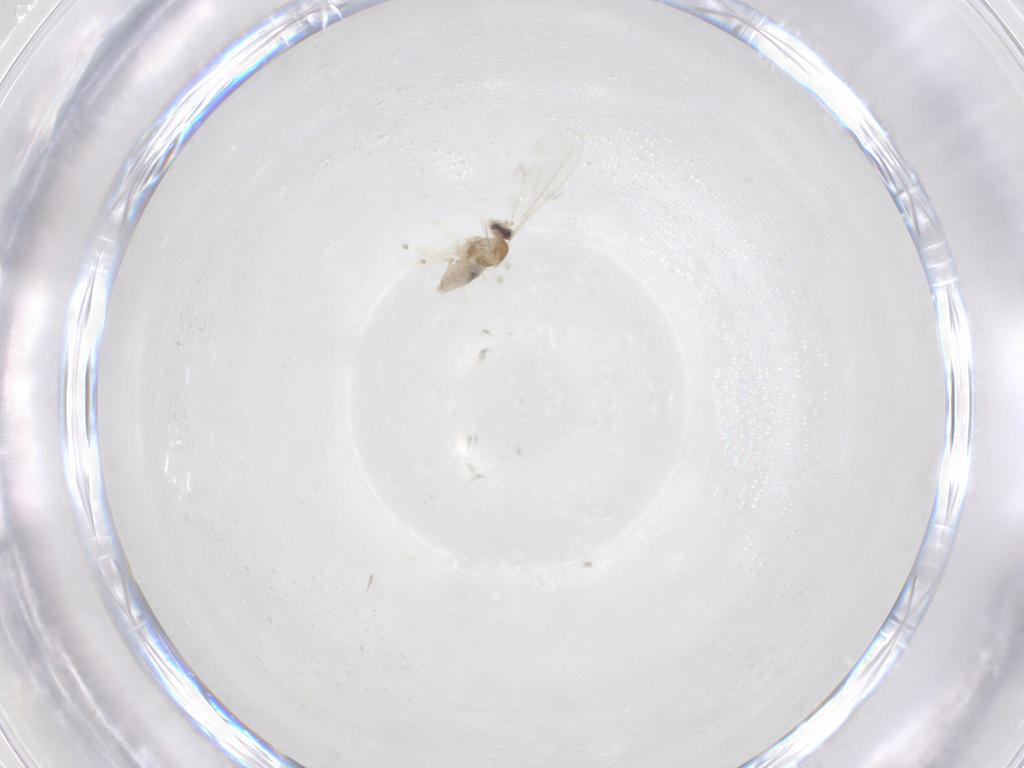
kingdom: Animalia
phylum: Arthropoda
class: Insecta
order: Diptera
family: Cecidomyiidae
